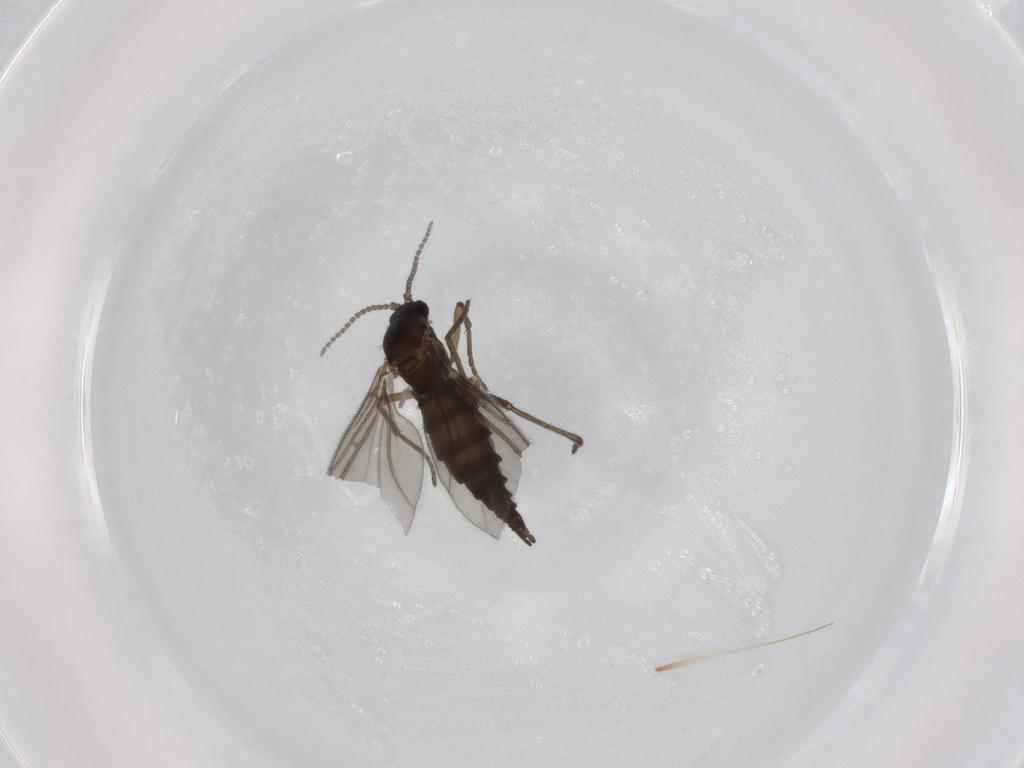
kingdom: Animalia
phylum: Arthropoda
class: Insecta
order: Diptera
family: Sciaridae
